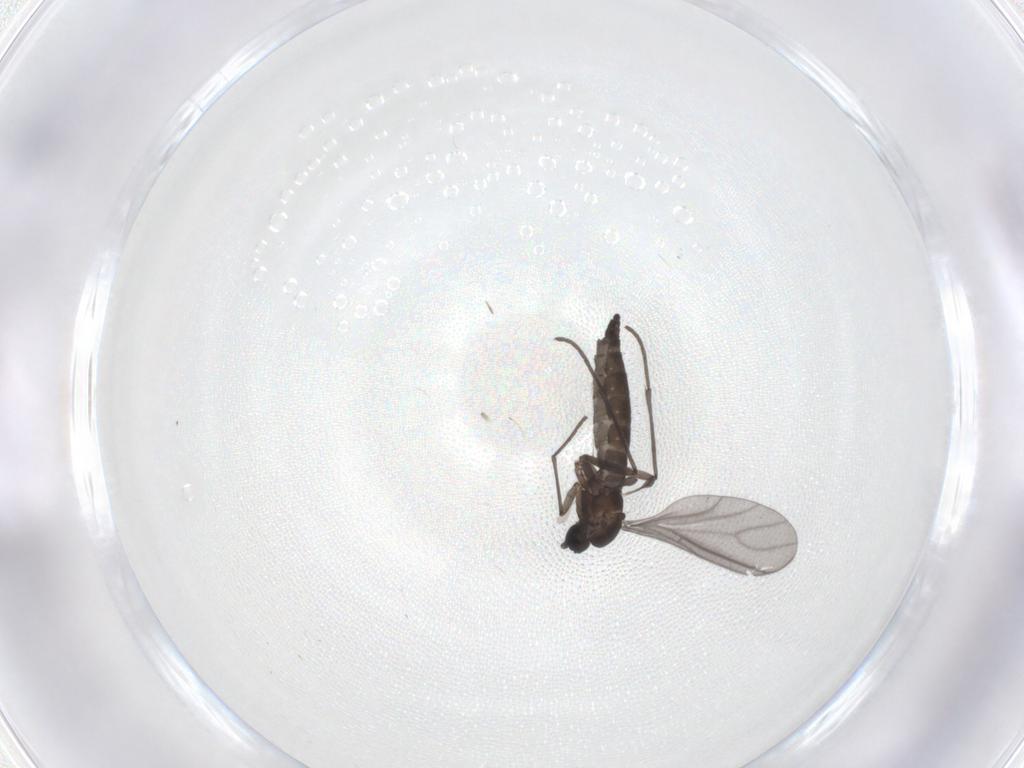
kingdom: Animalia
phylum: Arthropoda
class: Insecta
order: Diptera
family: Sciaridae
